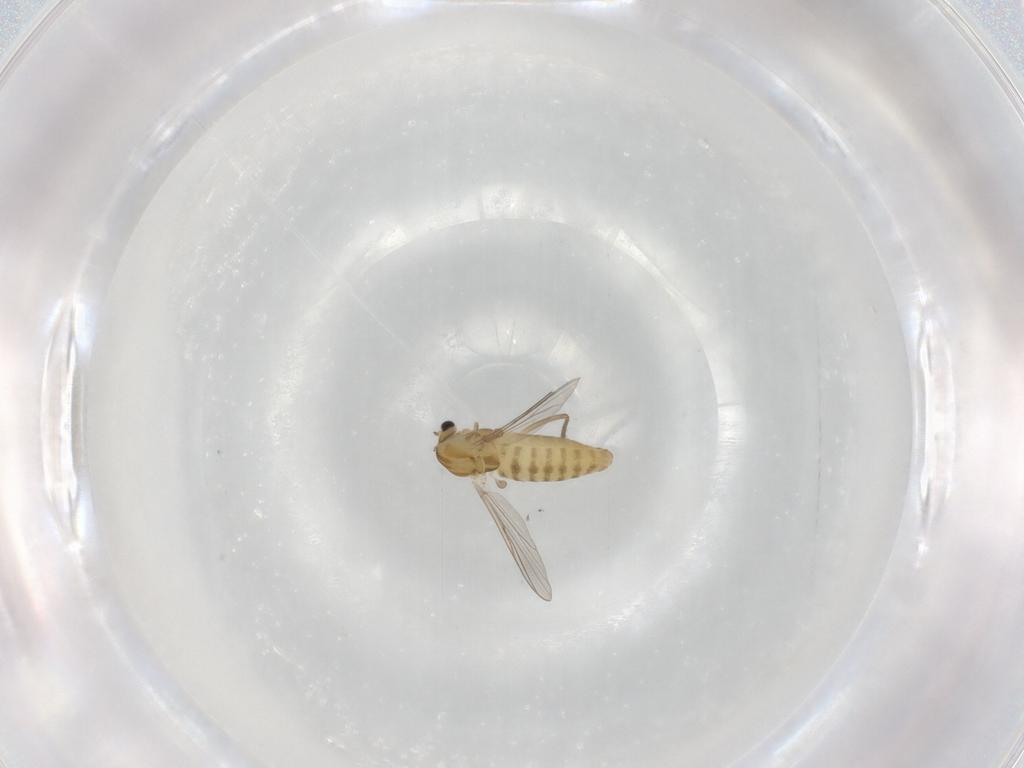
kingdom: Animalia
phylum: Arthropoda
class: Insecta
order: Diptera
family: Chironomidae
